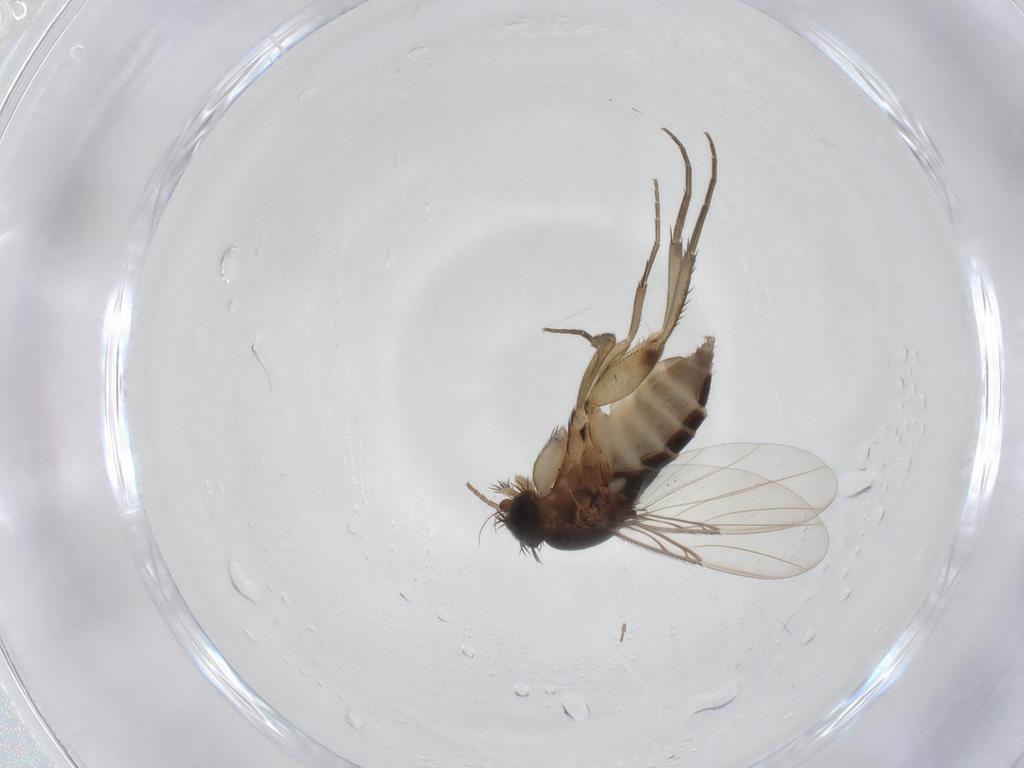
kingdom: Animalia
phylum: Arthropoda
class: Insecta
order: Diptera
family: Phoridae
